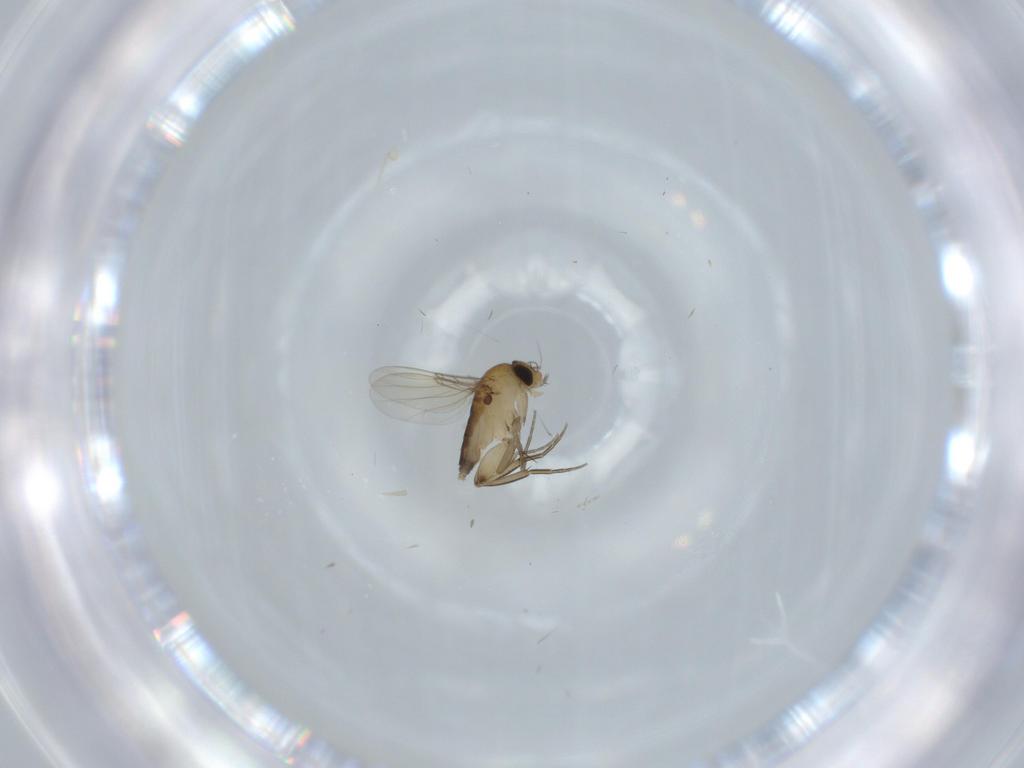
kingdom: Animalia
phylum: Arthropoda
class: Insecta
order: Diptera
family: Phoridae
